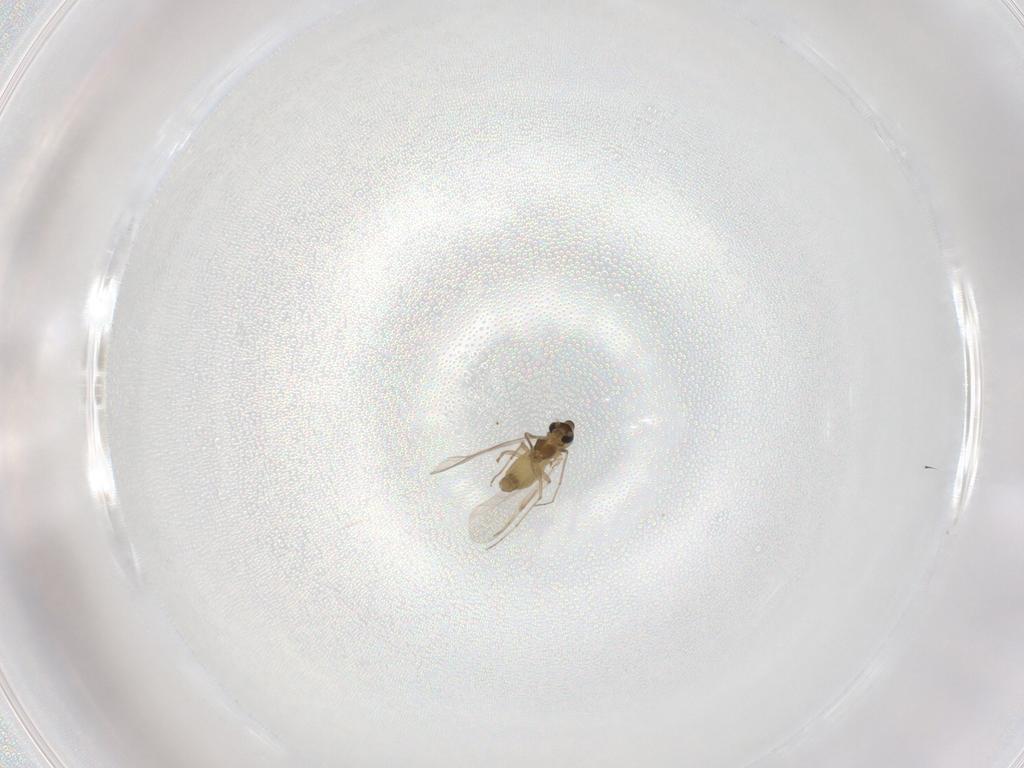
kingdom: Animalia
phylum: Arthropoda
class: Insecta
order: Diptera
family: Chironomidae
